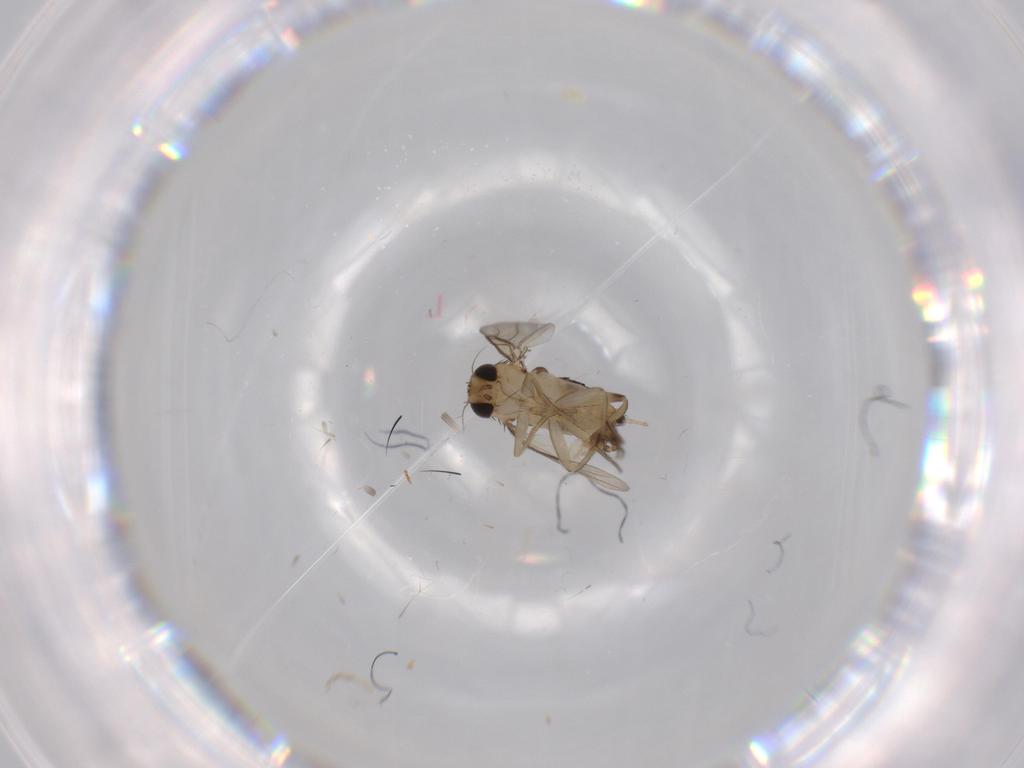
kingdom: Animalia
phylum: Arthropoda
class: Insecta
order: Diptera
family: Phoridae
